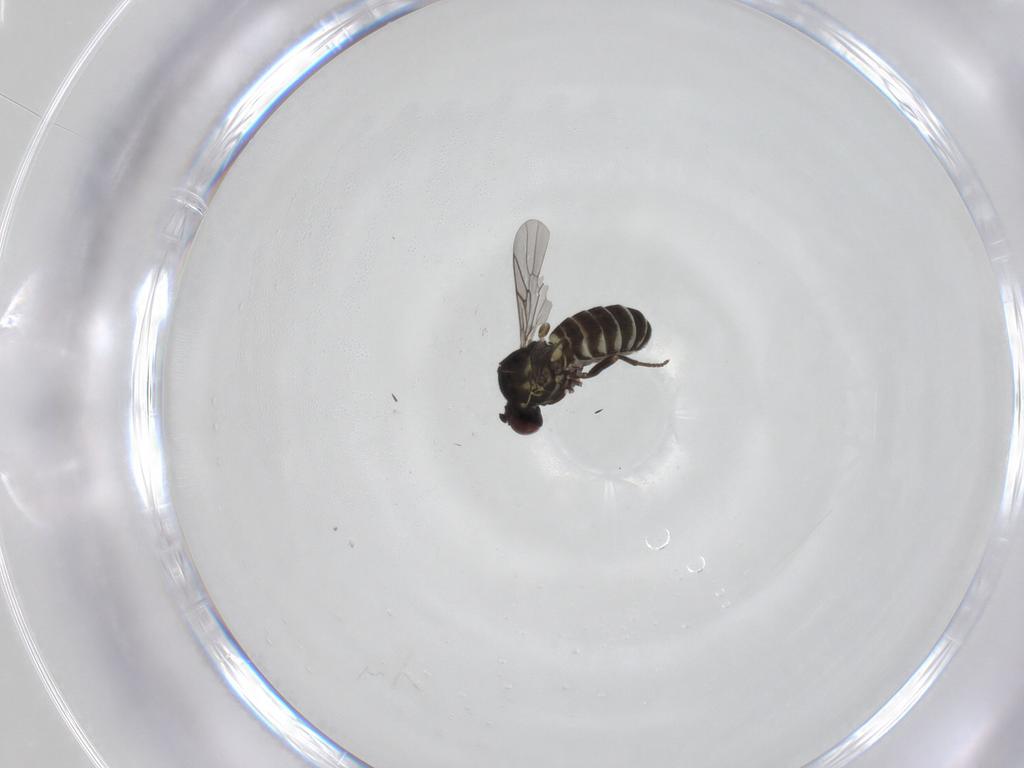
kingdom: Animalia
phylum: Arthropoda
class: Insecta
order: Diptera
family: Mythicomyiidae
